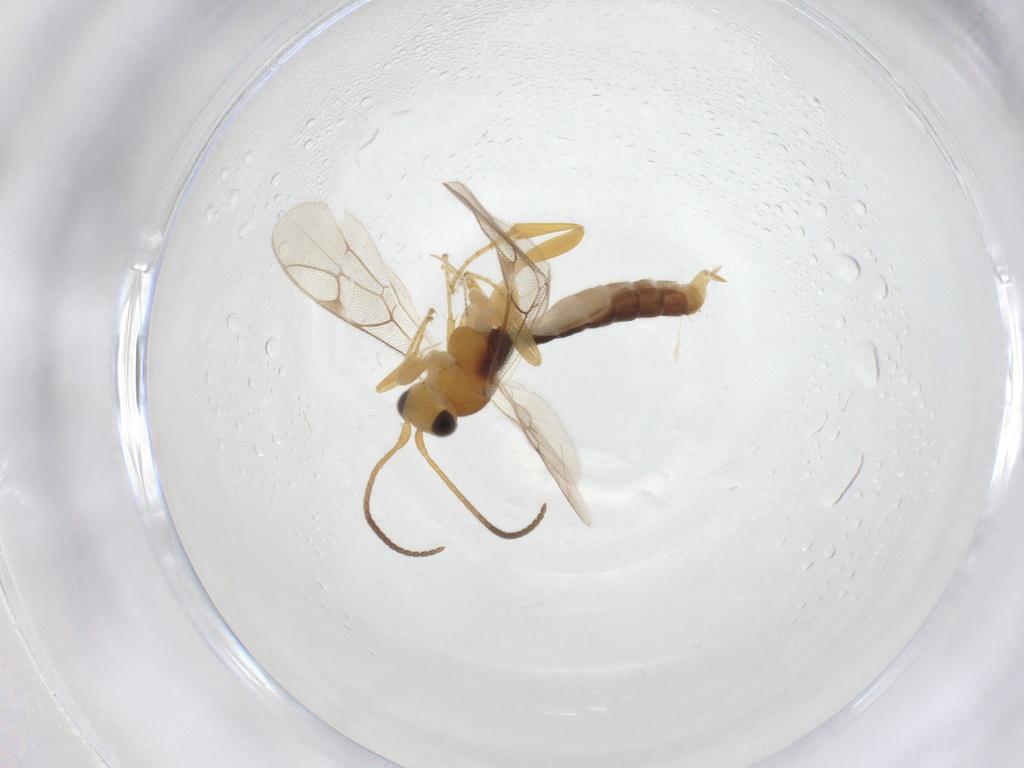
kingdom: Animalia
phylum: Arthropoda
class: Insecta
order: Hymenoptera
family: Ichneumonidae
